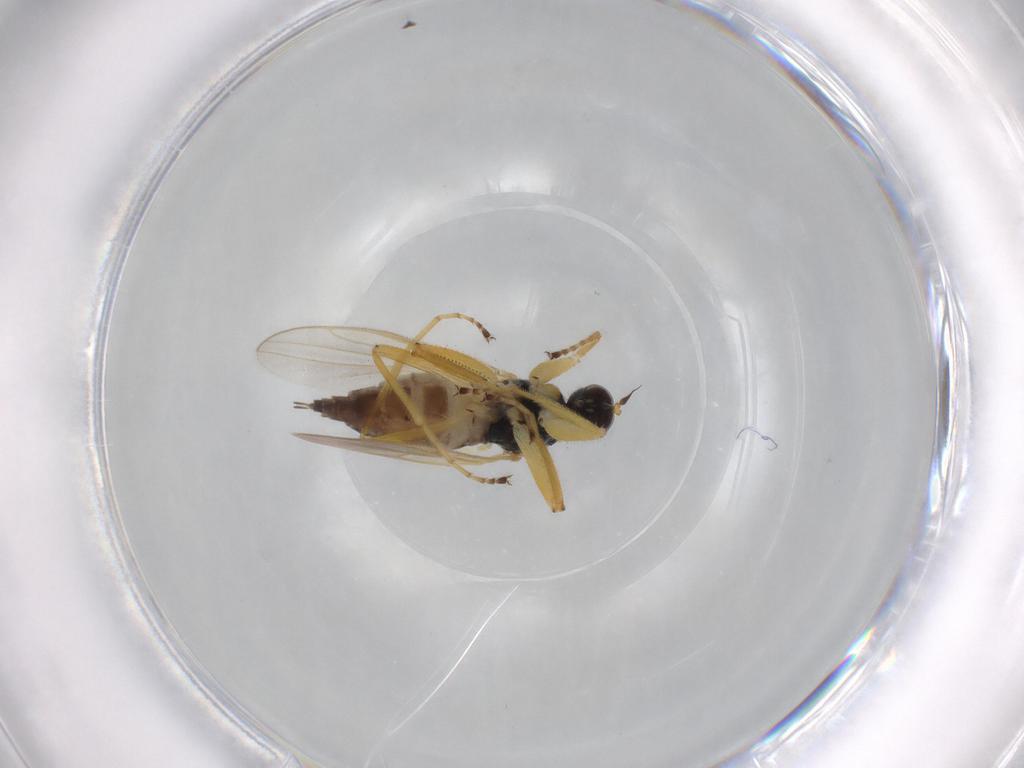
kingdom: Animalia
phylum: Arthropoda
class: Insecta
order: Diptera
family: Hybotidae
